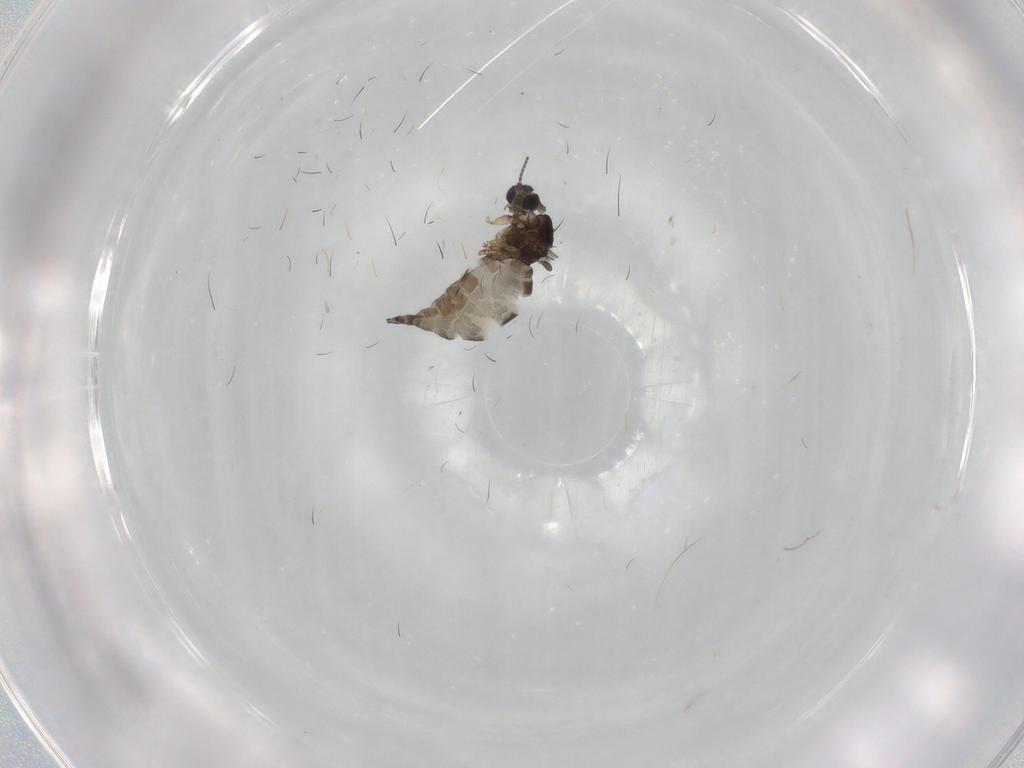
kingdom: Animalia
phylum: Arthropoda
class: Insecta
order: Diptera
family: Sciaridae
